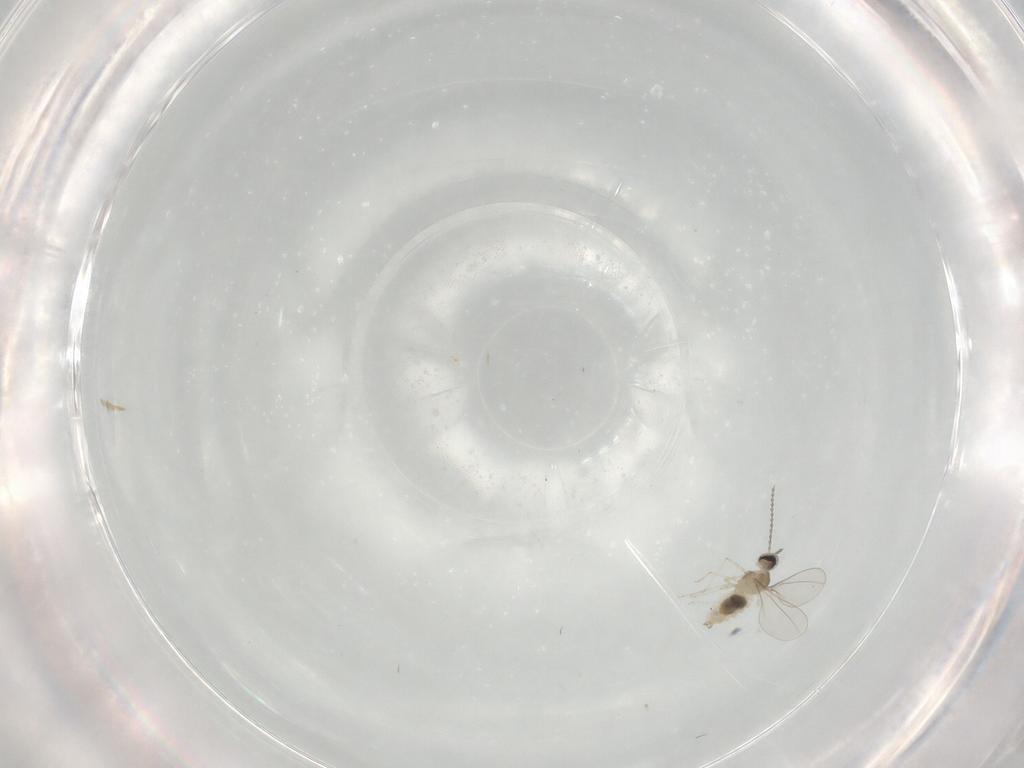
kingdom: Animalia
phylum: Arthropoda
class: Insecta
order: Diptera
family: Dolichopodidae
